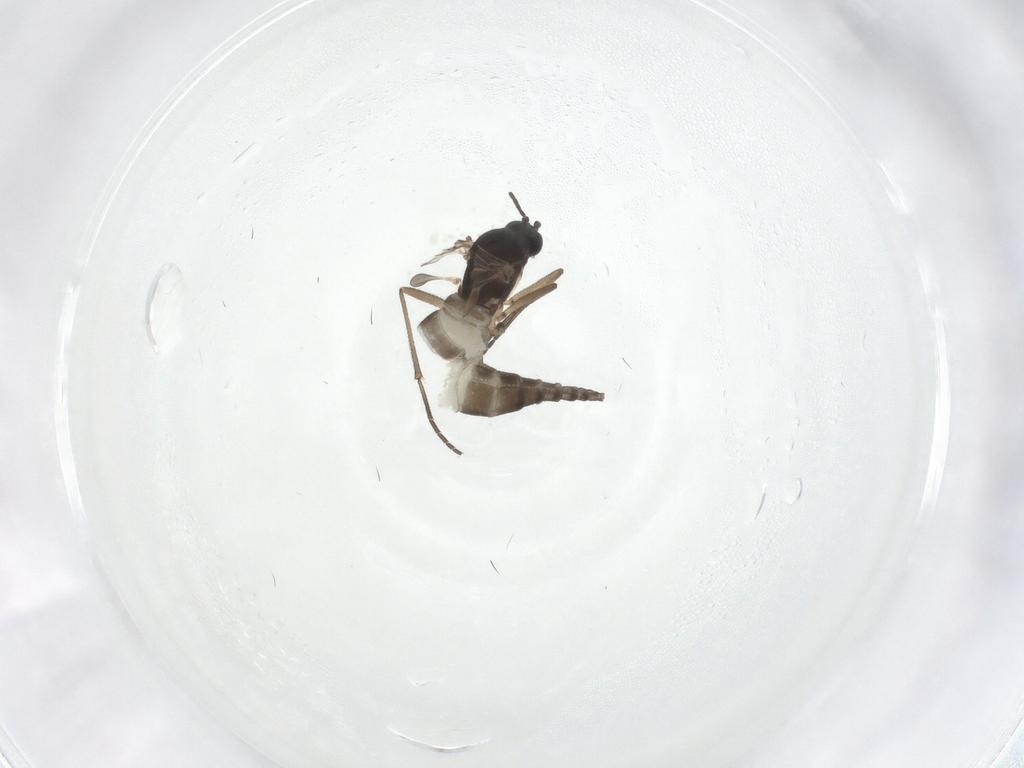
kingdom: Animalia
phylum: Arthropoda
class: Insecta
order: Diptera
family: Sciaridae
